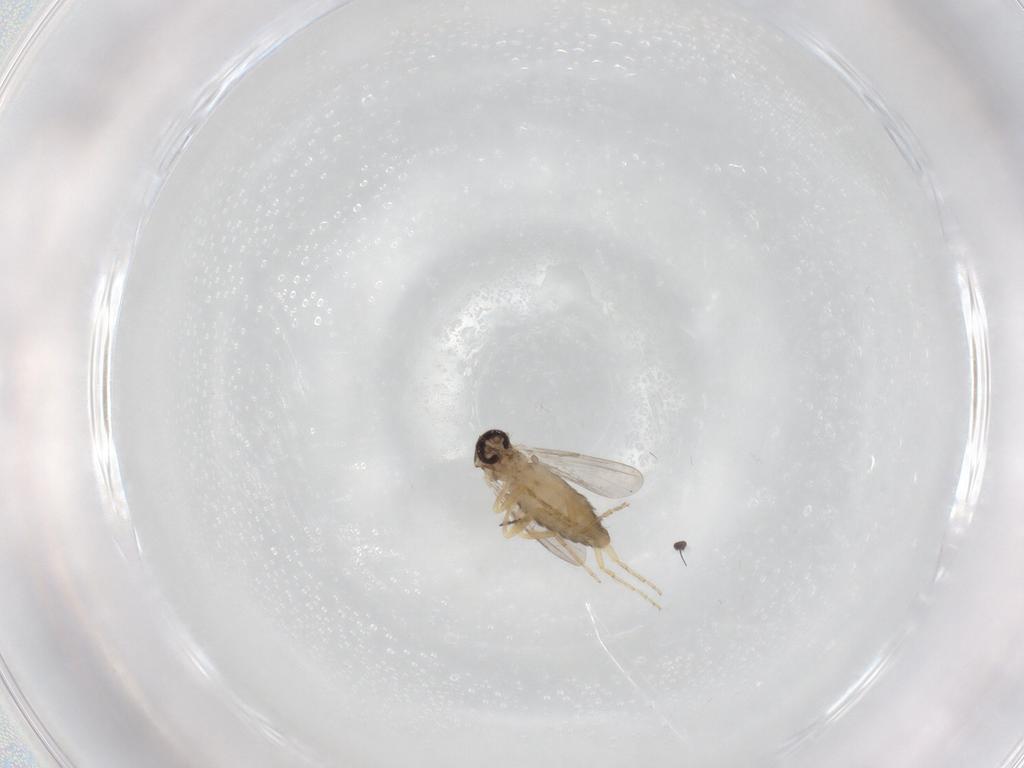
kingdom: Animalia
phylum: Arthropoda
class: Insecta
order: Diptera
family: Ceratopogonidae
